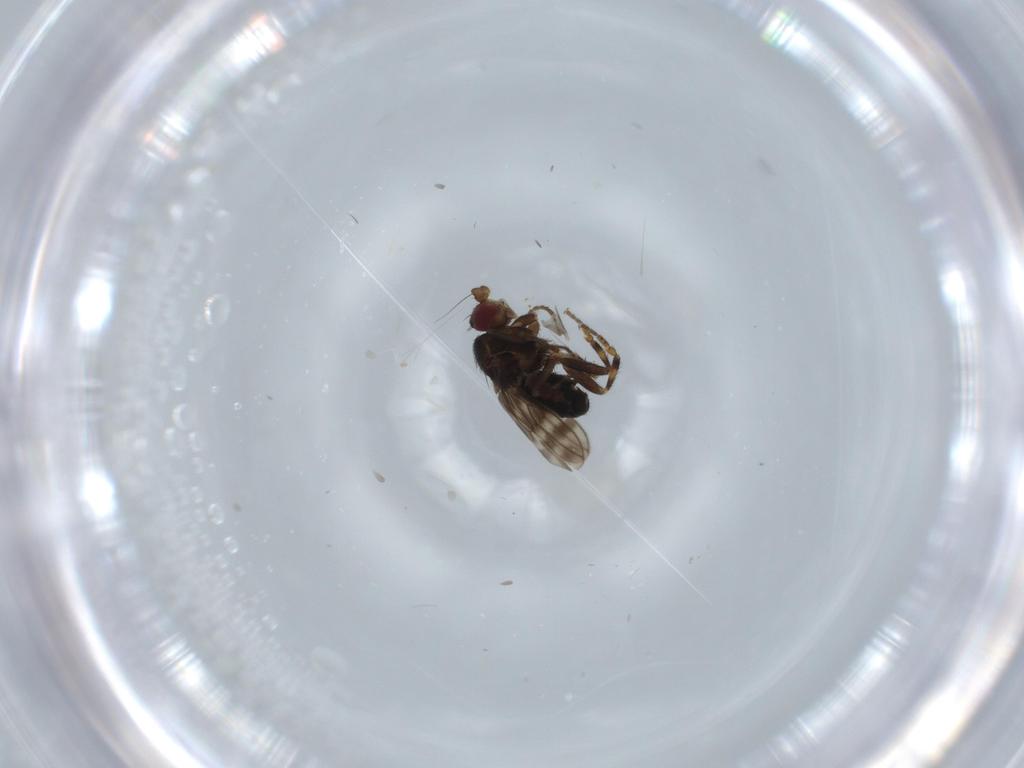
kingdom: Animalia
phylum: Arthropoda
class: Insecta
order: Diptera
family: Sphaeroceridae
